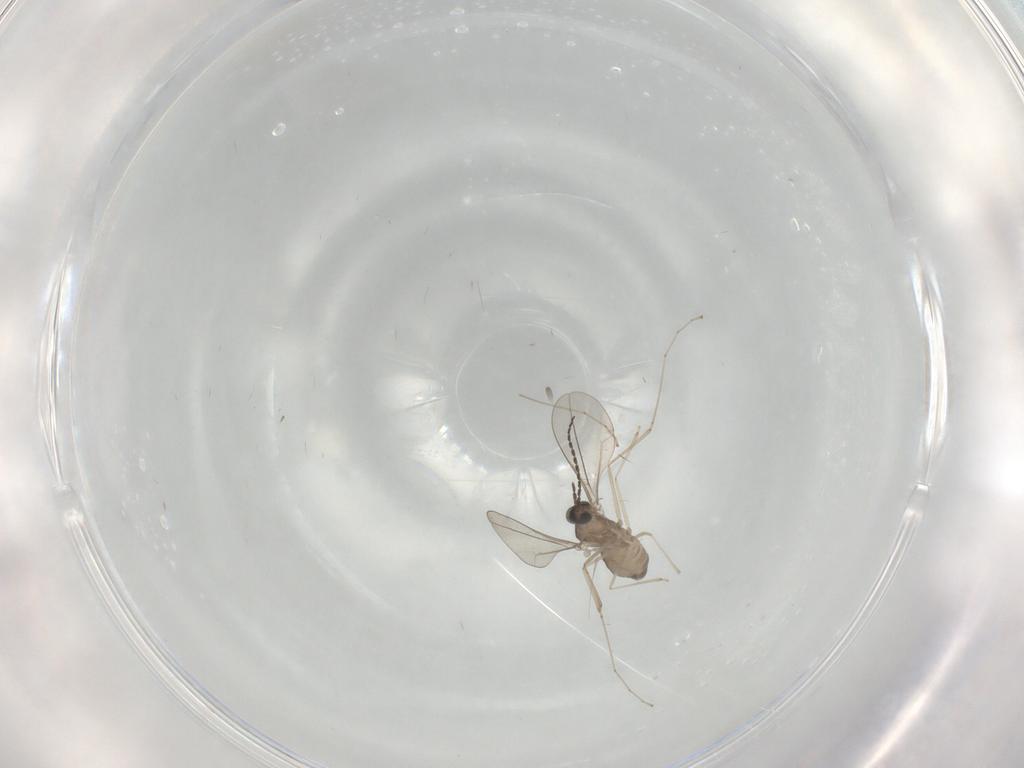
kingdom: Animalia
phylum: Arthropoda
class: Insecta
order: Diptera
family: Cecidomyiidae
